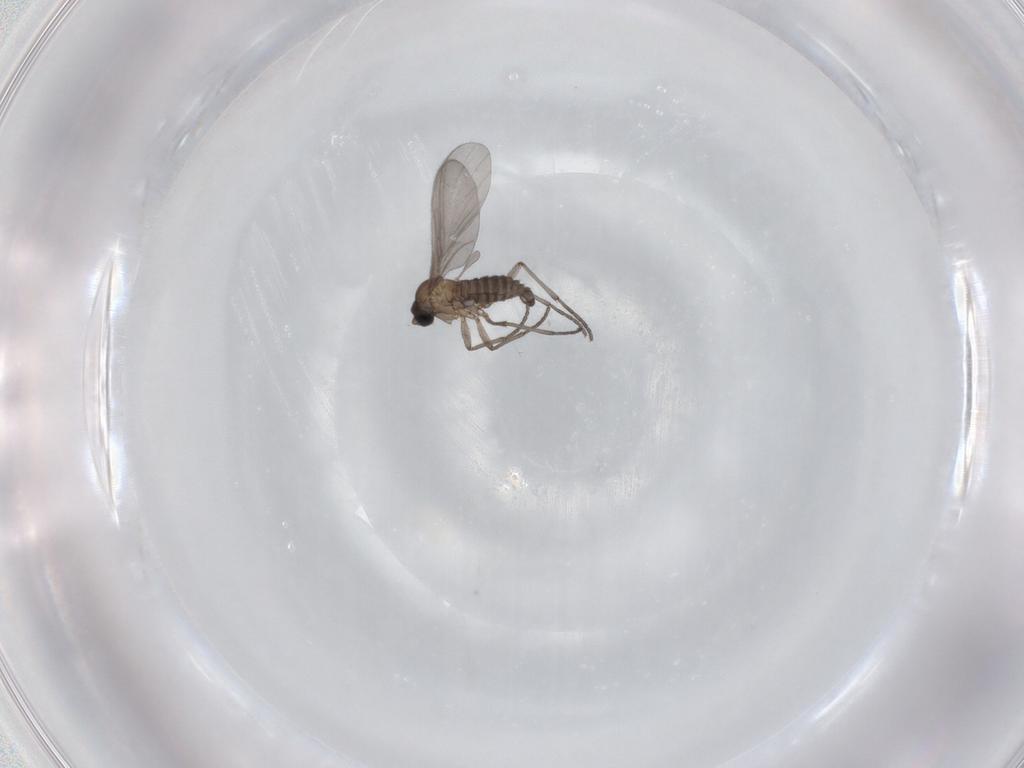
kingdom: Animalia
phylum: Arthropoda
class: Insecta
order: Diptera
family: Sciaridae
